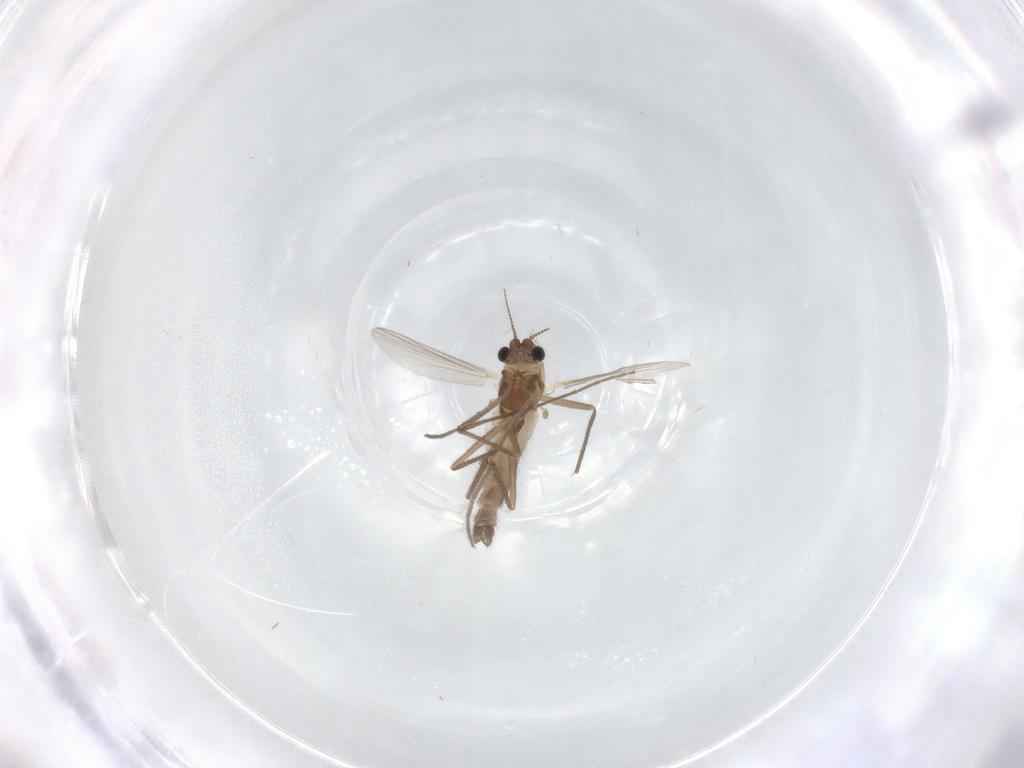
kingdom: Animalia
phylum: Arthropoda
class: Insecta
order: Diptera
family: Chironomidae
